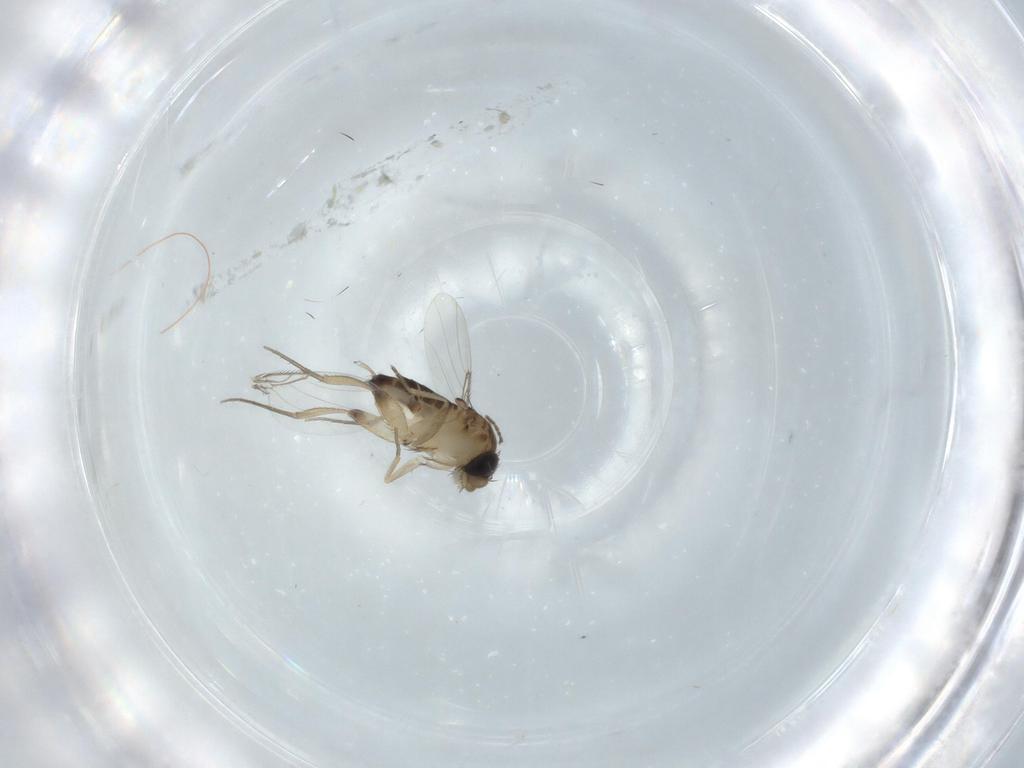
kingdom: Animalia
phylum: Arthropoda
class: Insecta
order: Diptera
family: Phoridae
